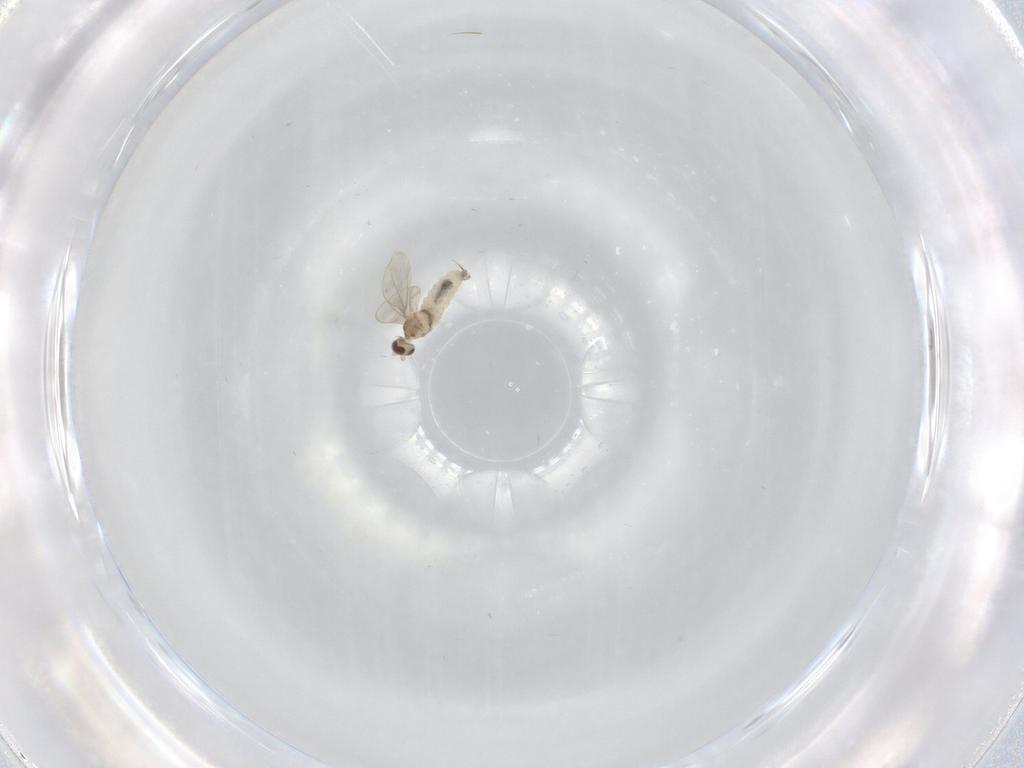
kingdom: Animalia
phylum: Arthropoda
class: Insecta
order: Diptera
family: Cecidomyiidae
